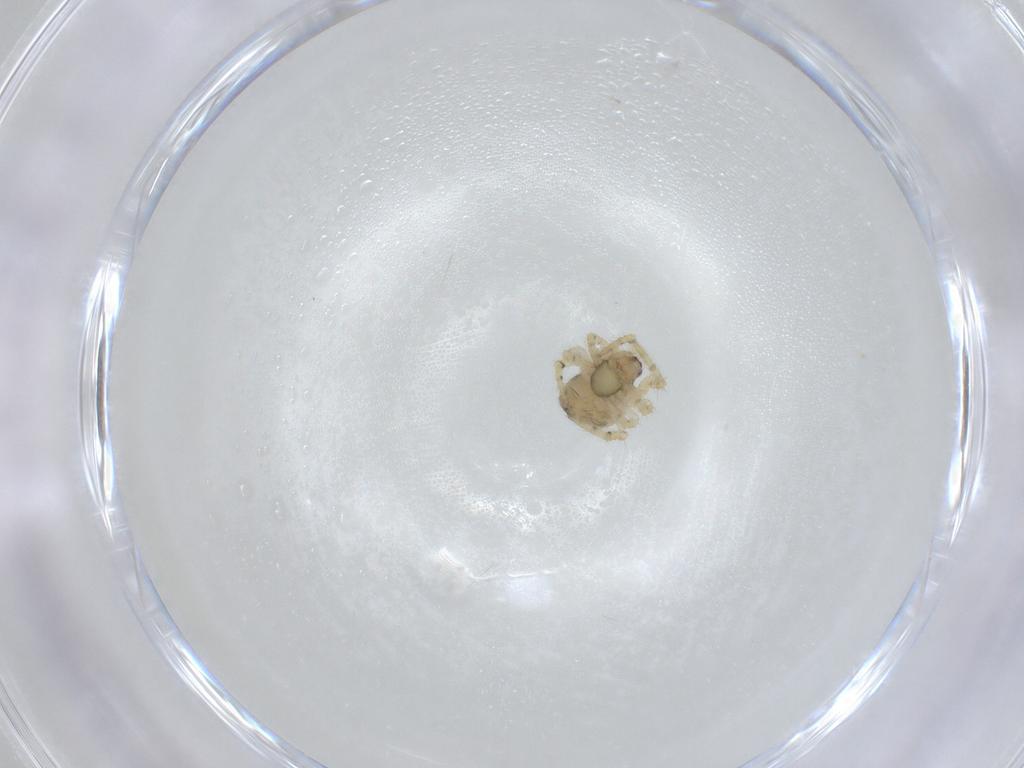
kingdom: Animalia
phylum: Arthropoda
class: Arachnida
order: Araneae
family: Theridiidae
